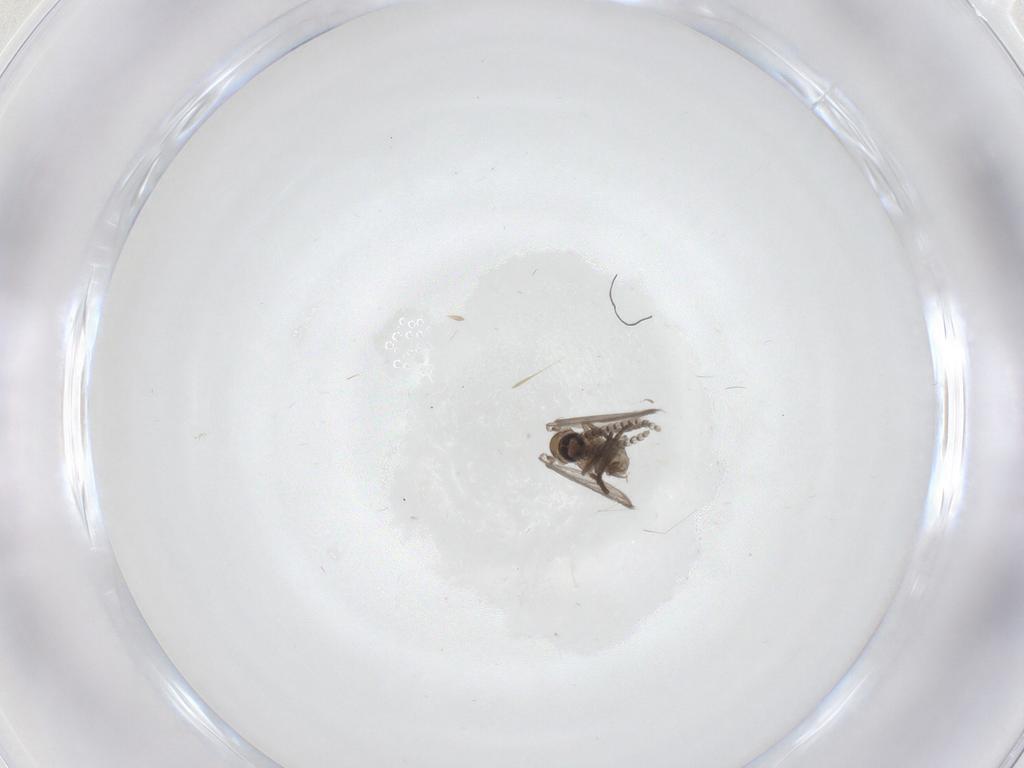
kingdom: Animalia
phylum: Arthropoda
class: Insecta
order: Diptera
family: Psychodidae
